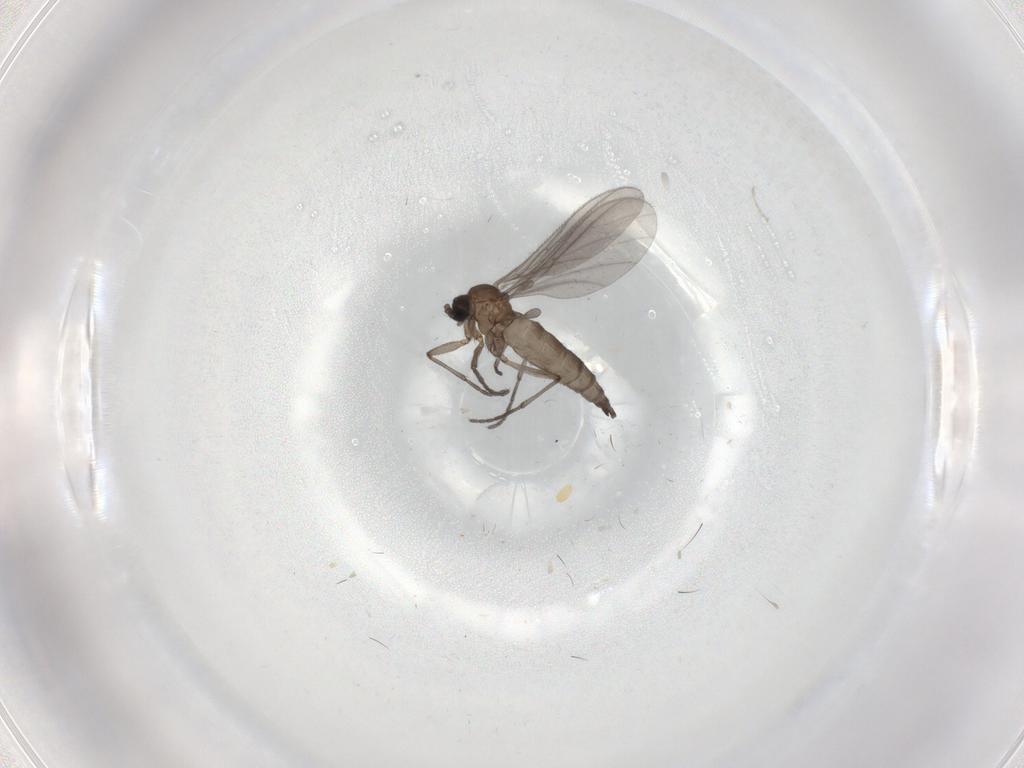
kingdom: Animalia
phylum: Arthropoda
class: Insecta
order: Diptera
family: Sciaridae
